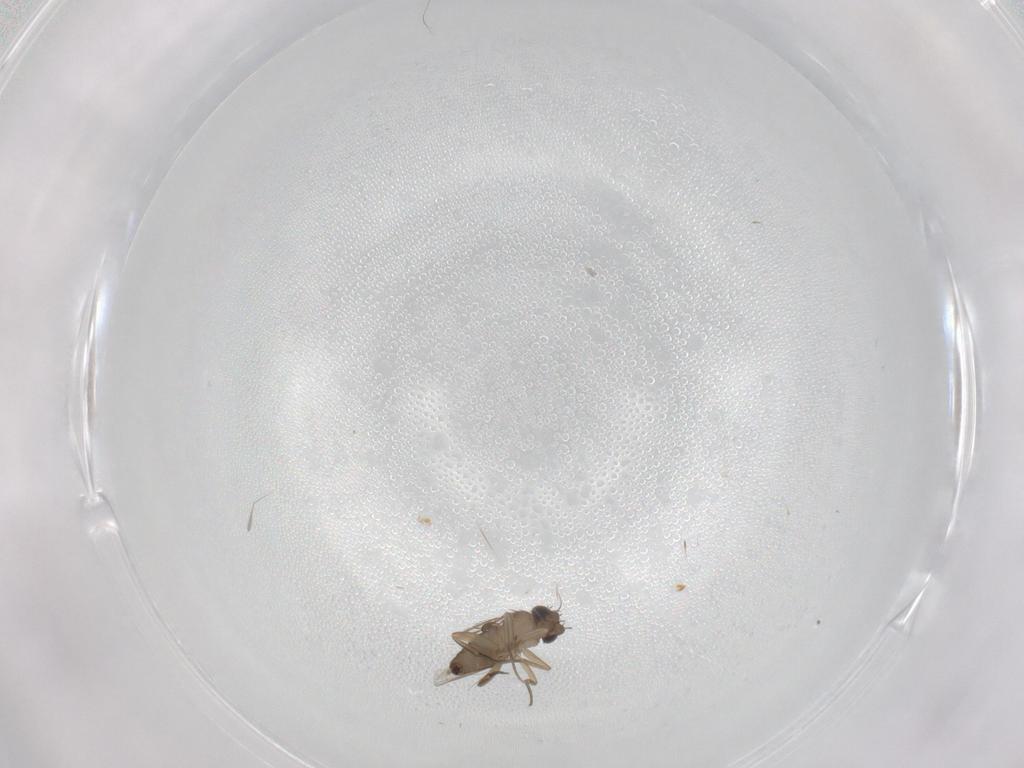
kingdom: Animalia
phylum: Arthropoda
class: Insecta
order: Diptera
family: Phoridae
